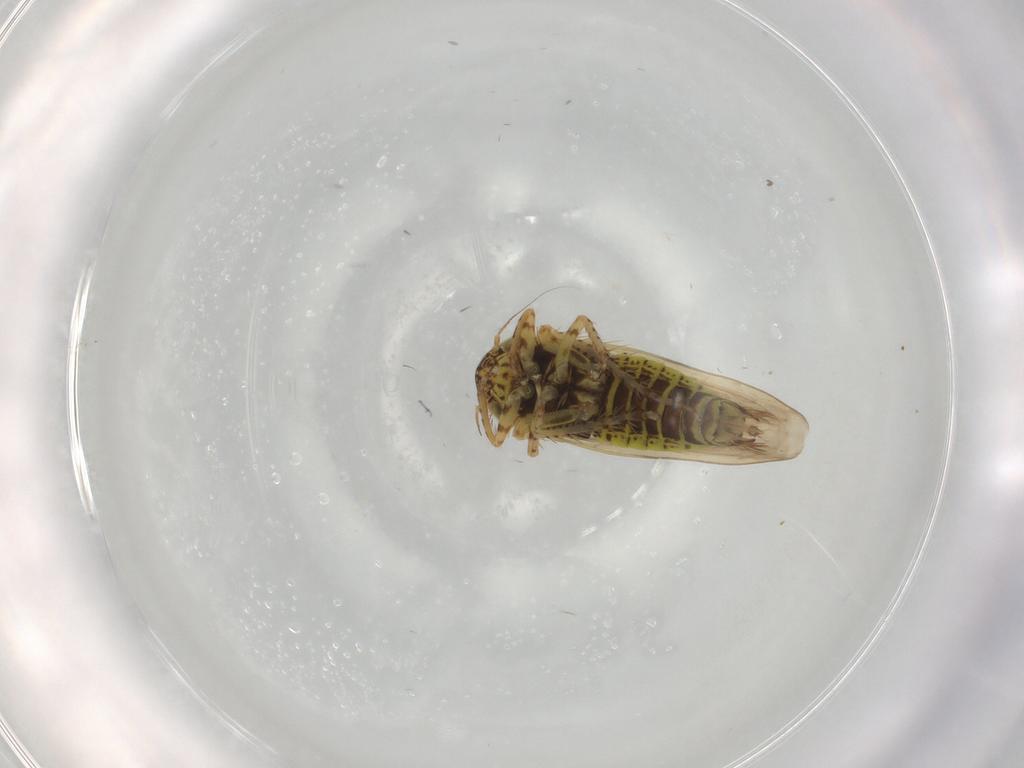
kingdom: Animalia
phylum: Arthropoda
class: Insecta
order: Hemiptera
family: Cicadellidae
